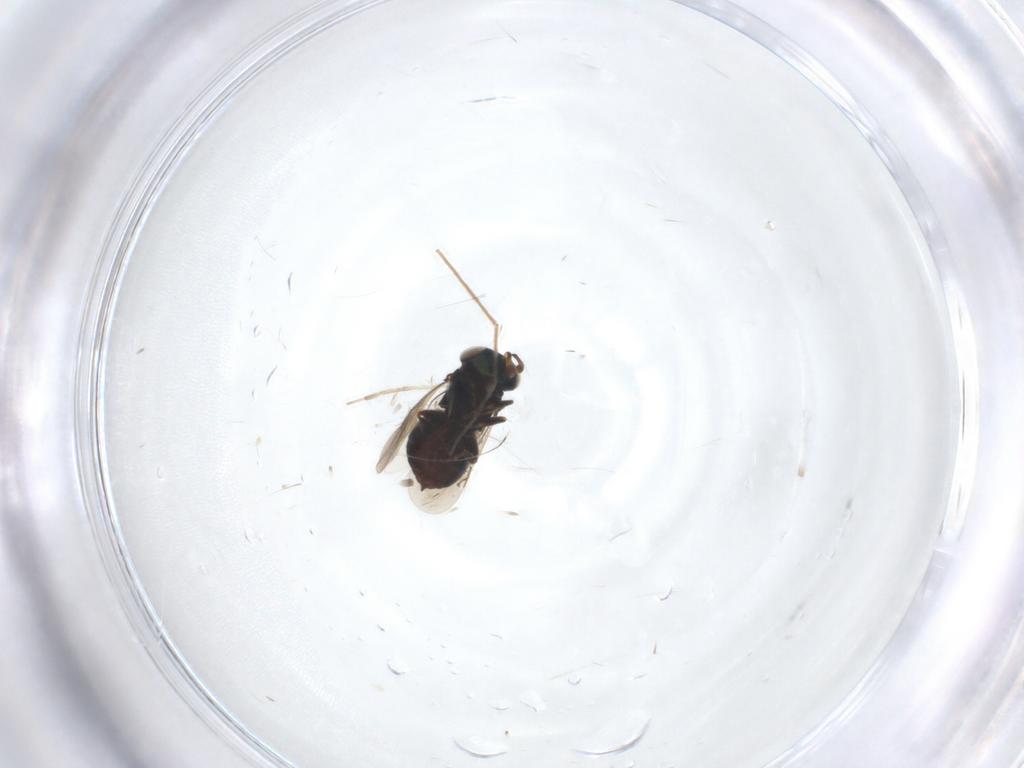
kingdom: Animalia
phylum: Arthropoda
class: Insecta
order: Hymenoptera
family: Eunotidae
